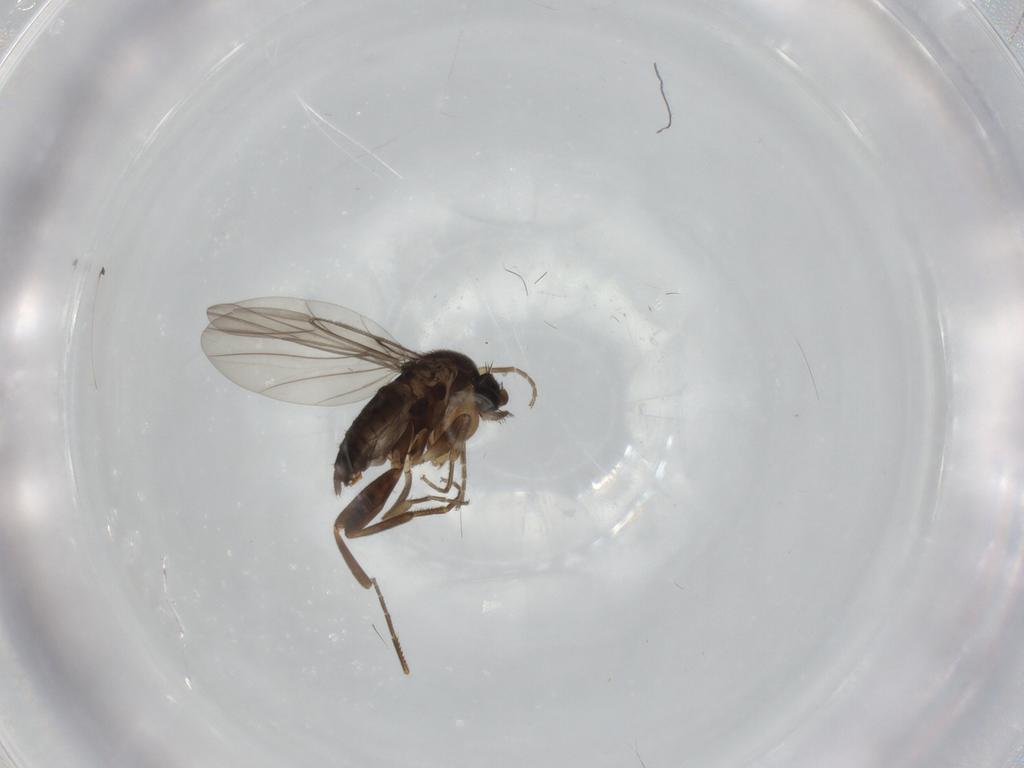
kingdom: Animalia
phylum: Arthropoda
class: Insecta
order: Diptera
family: Phoridae
